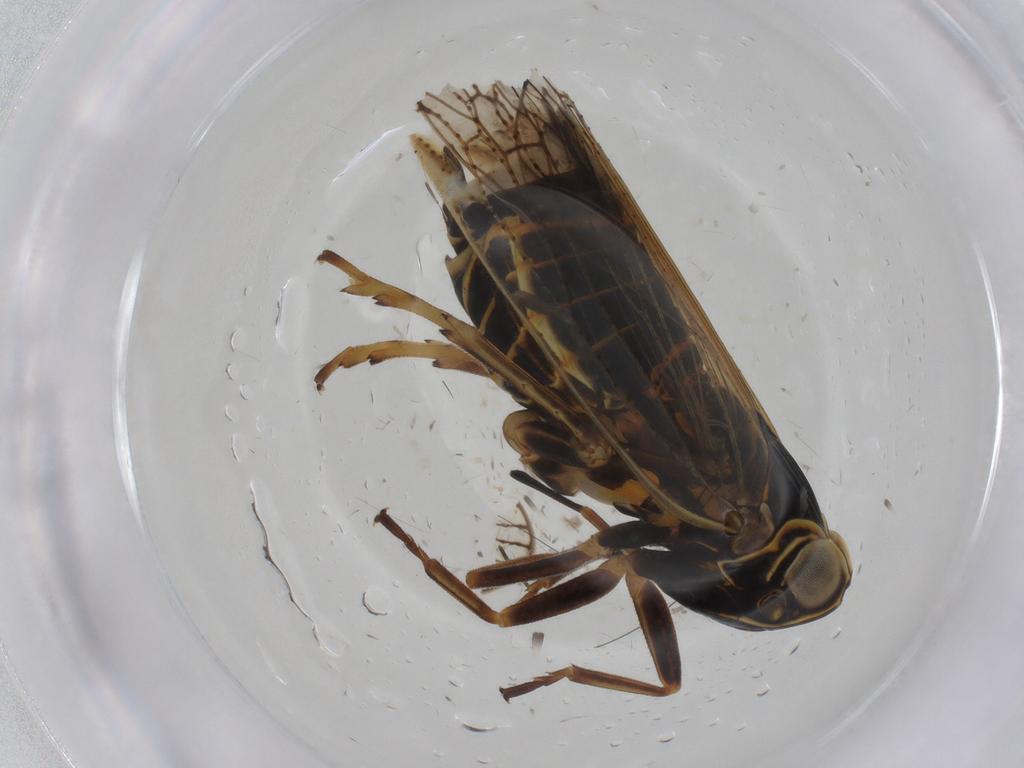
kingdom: Animalia
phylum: Arthropoda
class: Insecta
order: Hemiptera
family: Cixiidae
